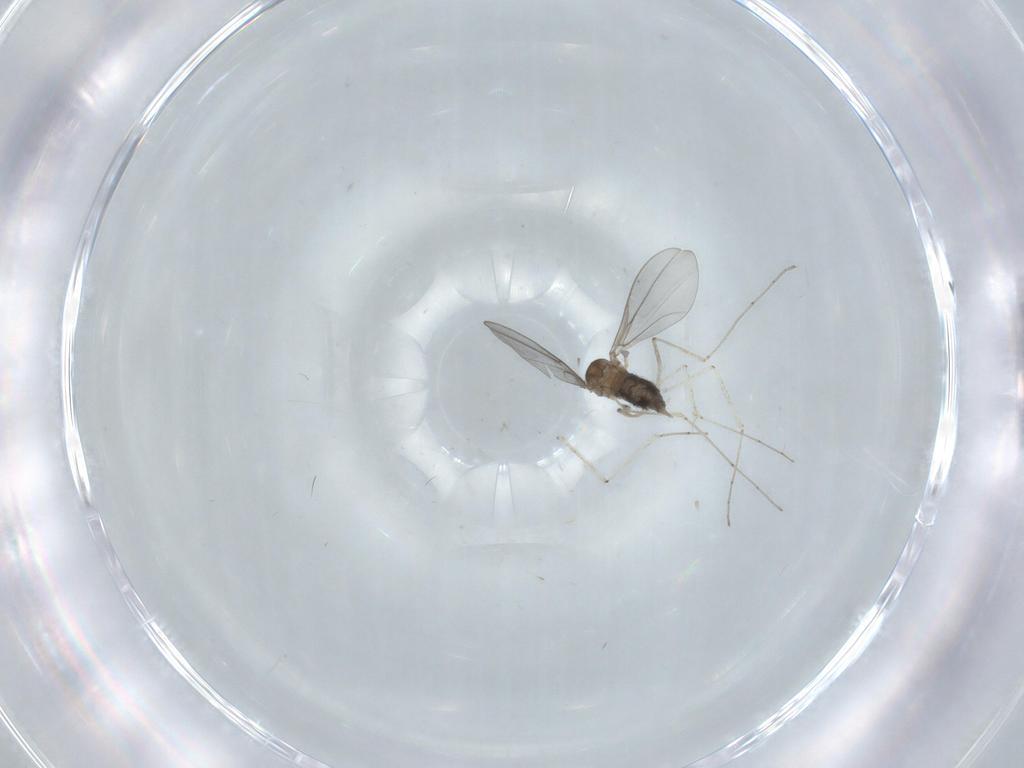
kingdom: Animalia
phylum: Arthropoda
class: Insecta
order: Diptera
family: Cecidomyiidae
